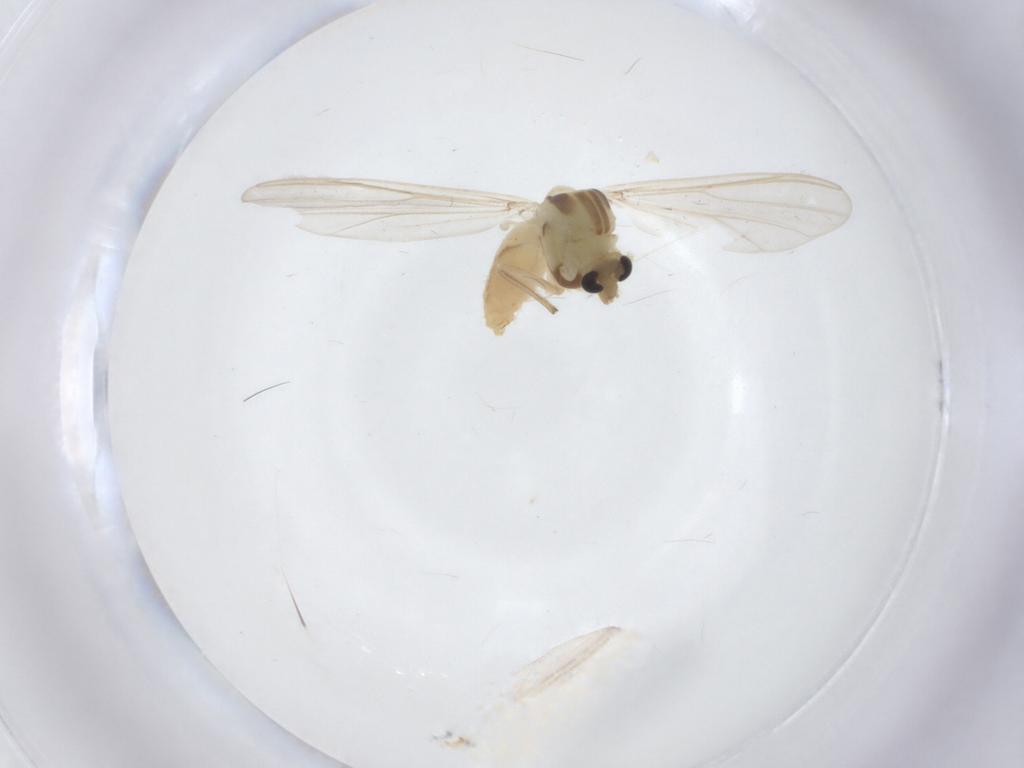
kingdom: Animalia
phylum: Arthropoda
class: Insecta
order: Diptera
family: Chironomidae
